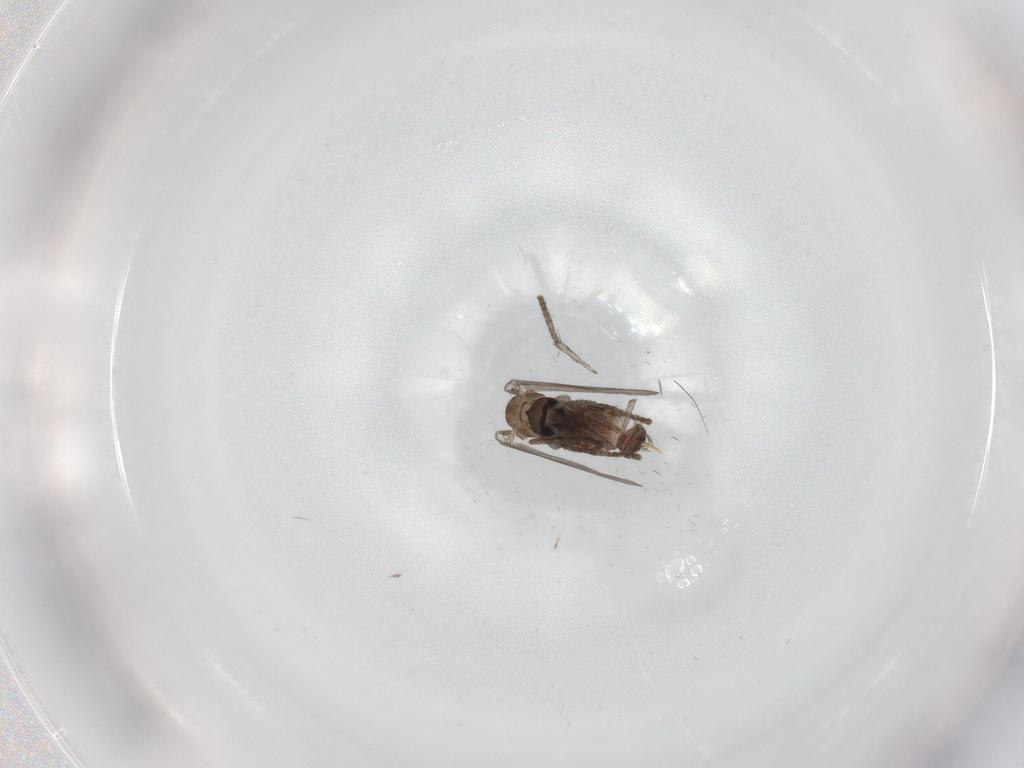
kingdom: Animalia
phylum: Arthropoda
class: Insecta
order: Diptera
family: Psychodidae
